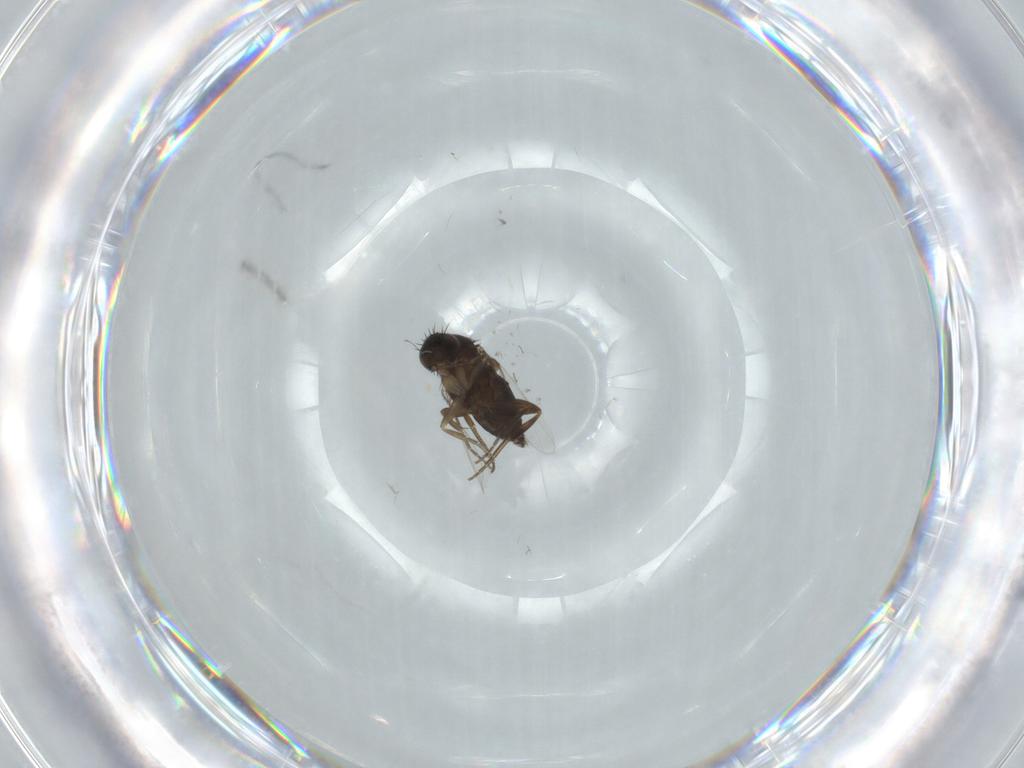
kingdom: Animalia
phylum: Arthropoda
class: Insecta
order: Diptera
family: Phoridae
